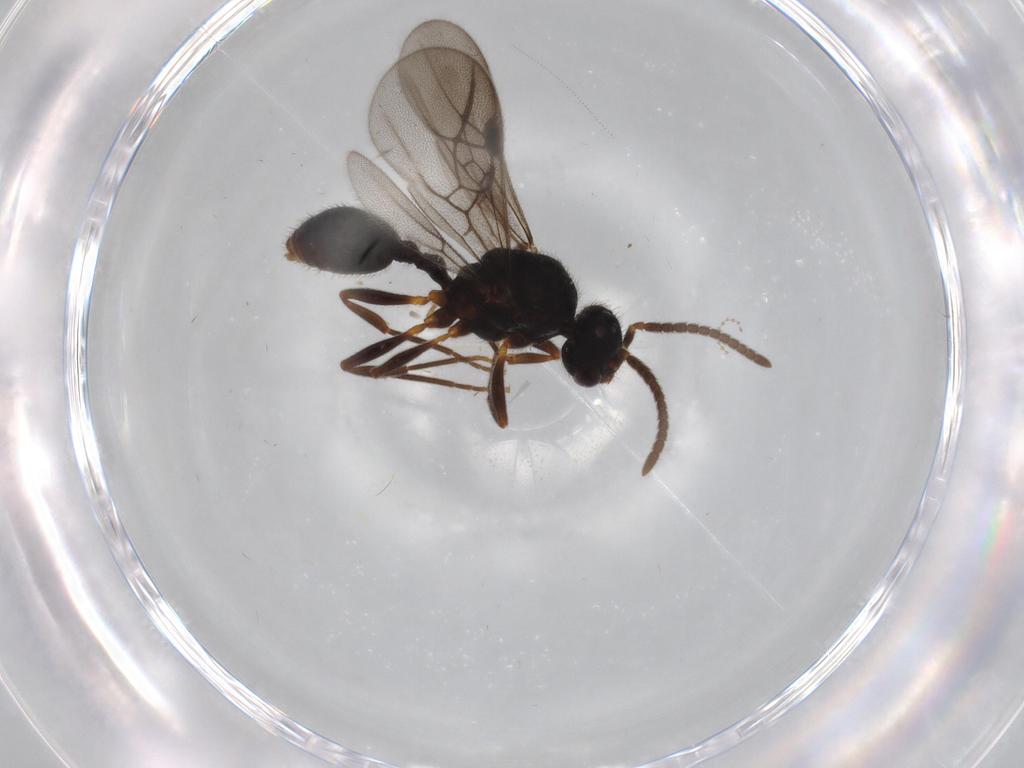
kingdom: Animalia
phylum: Arthropoda
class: Insecta
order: Hymenoptera
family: Formicidae
